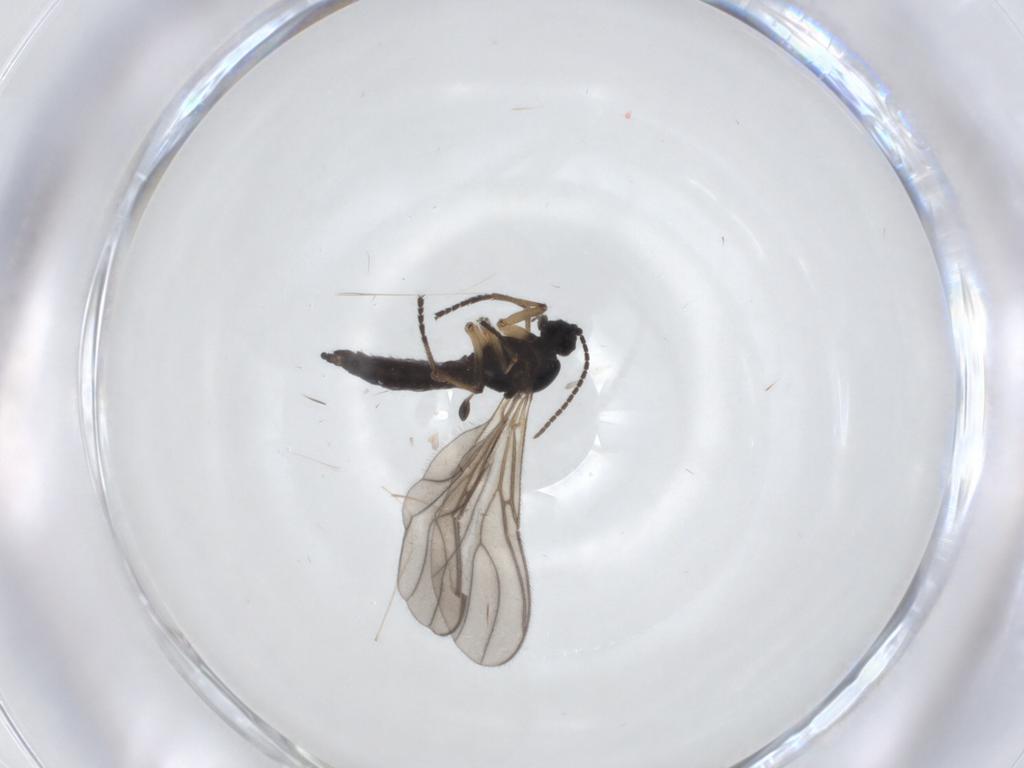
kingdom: Animalia
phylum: Arthropoda
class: Insecta
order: Diptera
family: Sciaridae
